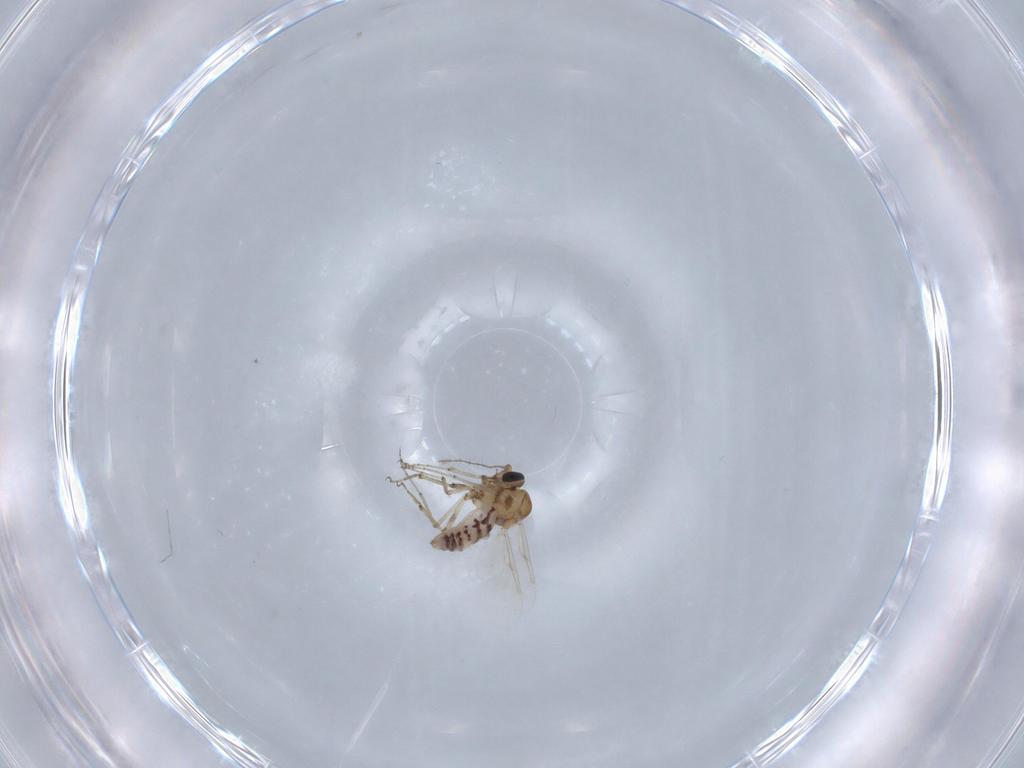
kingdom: Animalia
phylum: Arthropoda
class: Insecta
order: Diptera
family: Ceratopogonidae
